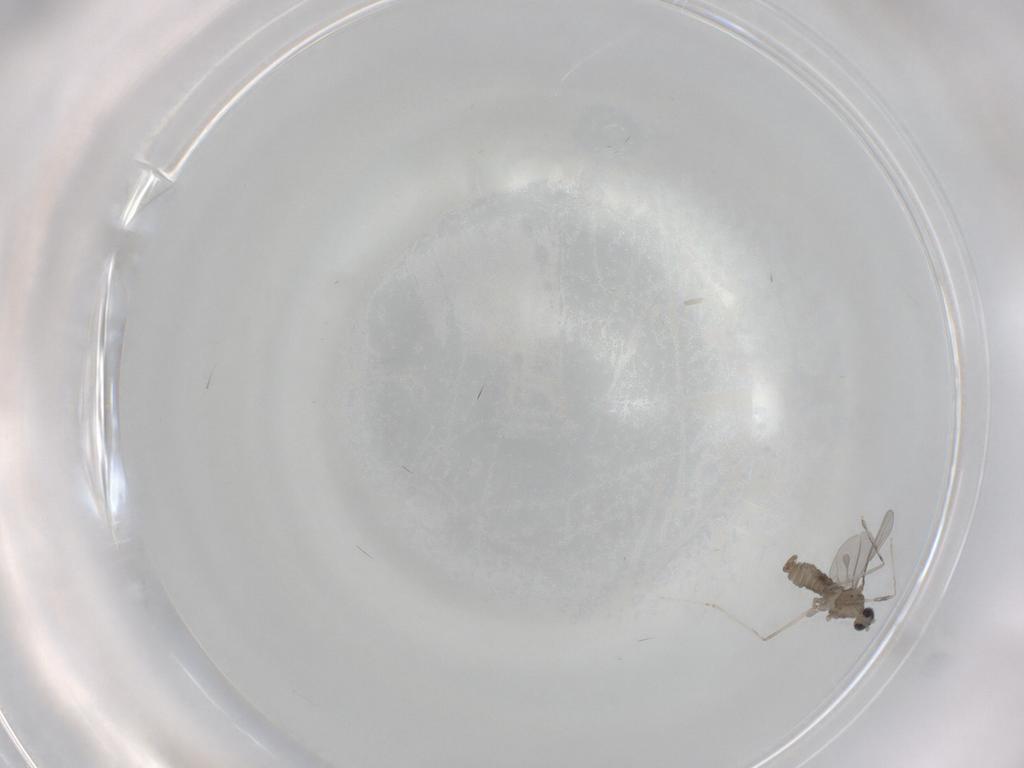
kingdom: Animalia
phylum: Arthropoda
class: Insecta
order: Diptera
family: Cecidomyiidae
